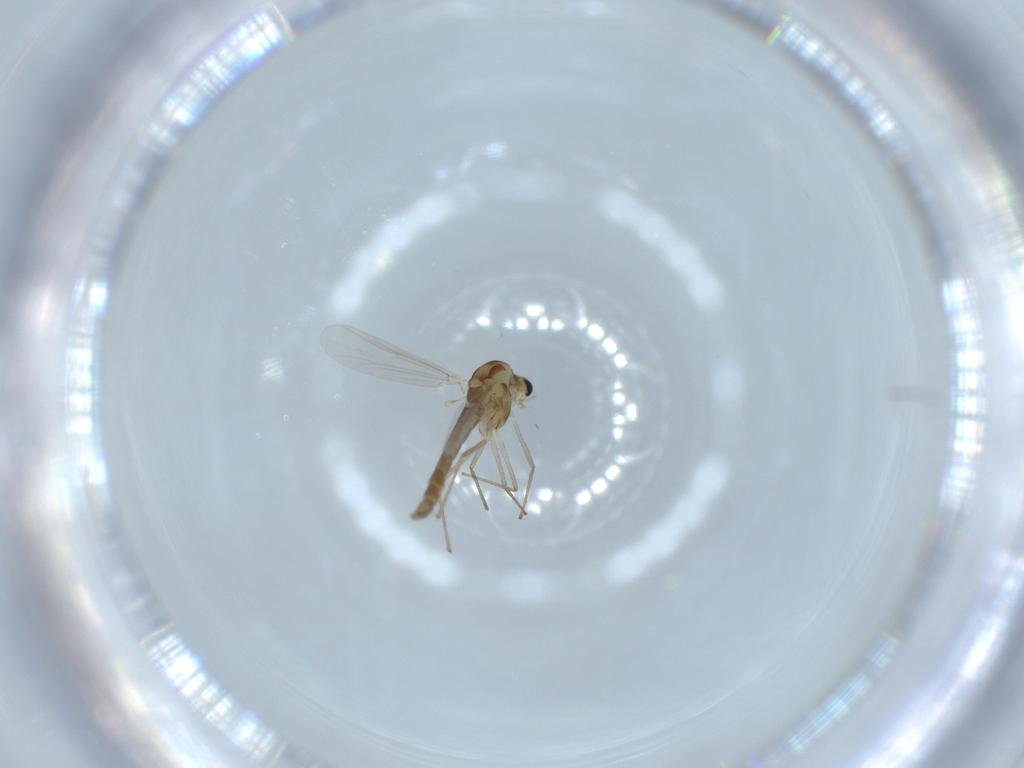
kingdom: Animalia
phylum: Arthropoda
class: Insecta
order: Diptera
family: Chironomidae
